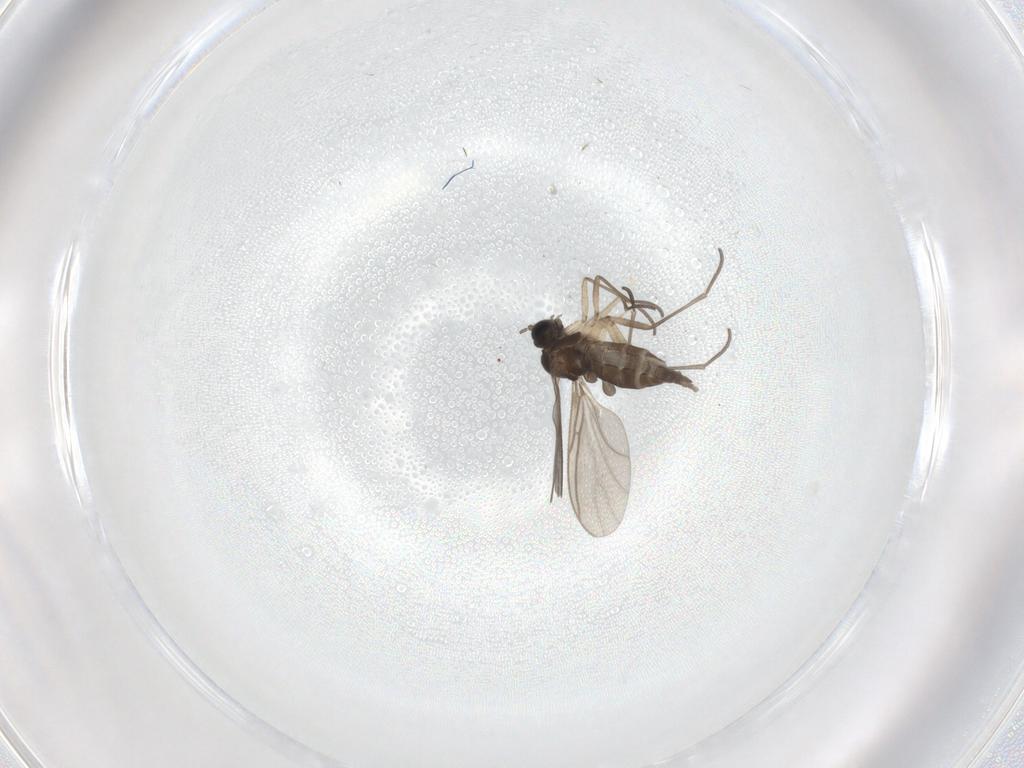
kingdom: Animalia
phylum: Arthropoda
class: Insecta
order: Diptera
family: Sciaridae
